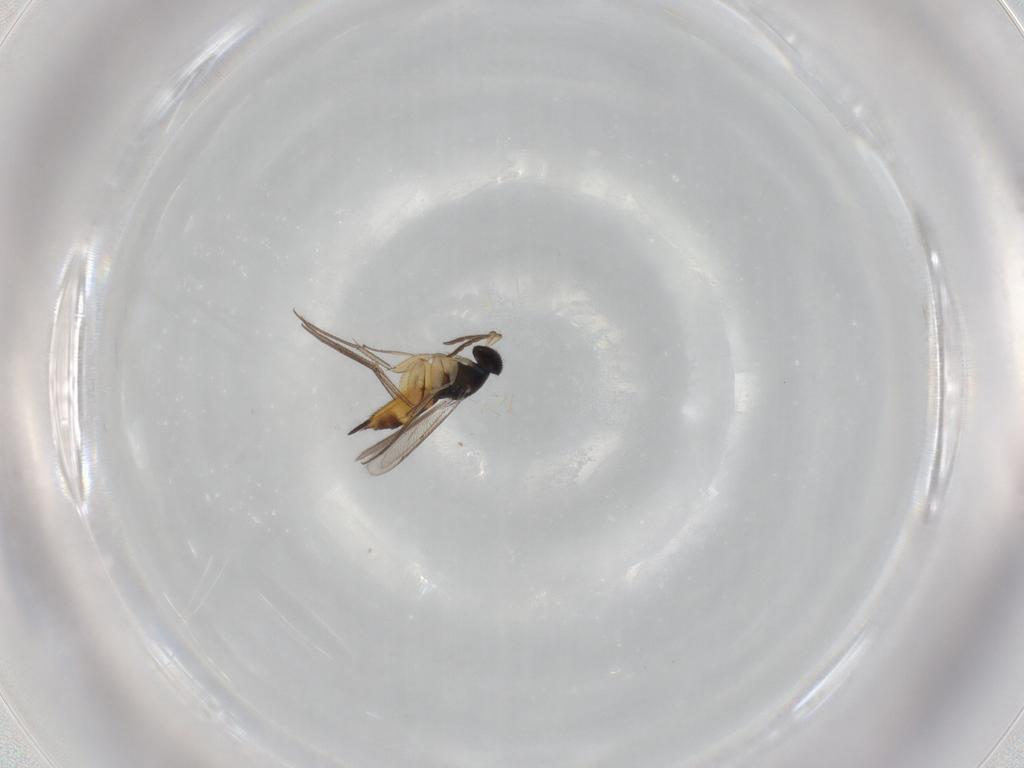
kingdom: Animalia
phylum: Arthropoda
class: Insecta
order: Hymenoptera
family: Eulophidae
